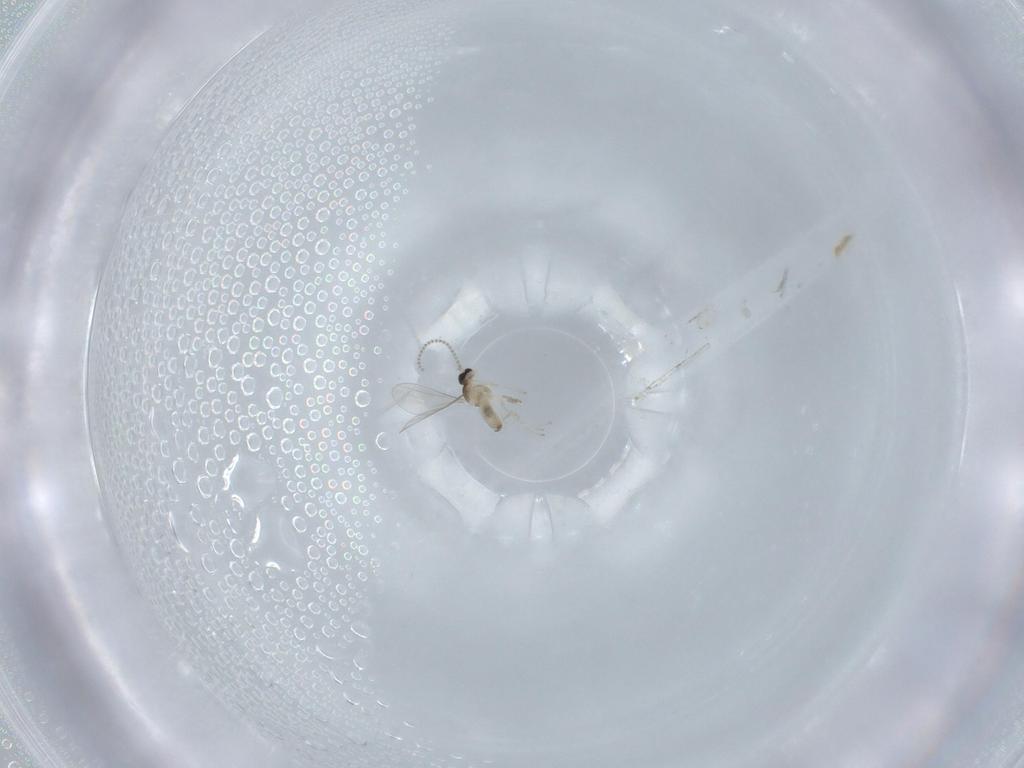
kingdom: Animalia
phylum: Arthropoda
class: Insecta
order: Diptera
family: Cecidomyiidae
